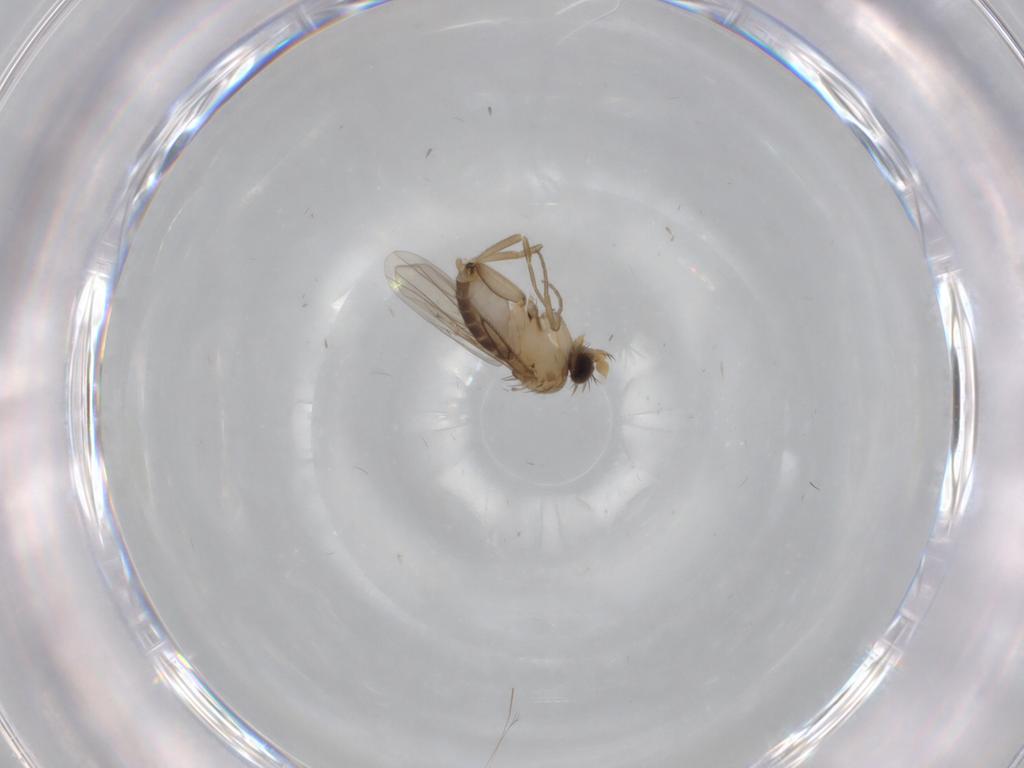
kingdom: Animalia
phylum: Arthropoda
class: Insecta
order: Diptera
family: Phoridae
